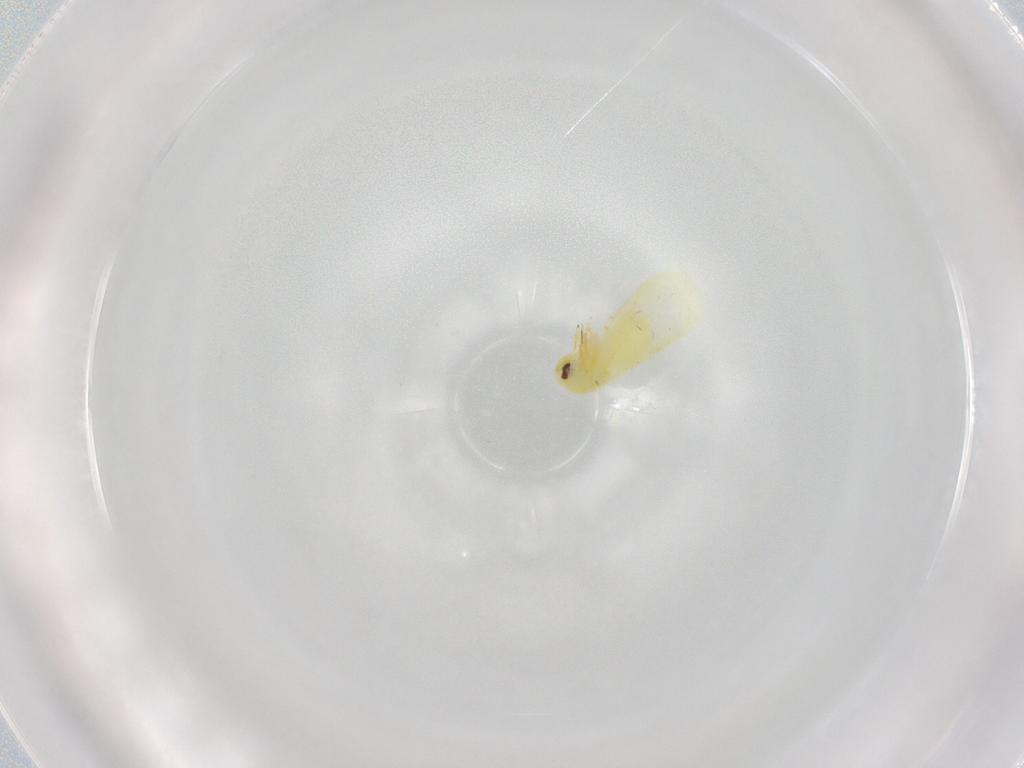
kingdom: Animalia
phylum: Arthropoda
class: Insecta
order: Hemiptera
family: Aleyrodidae
